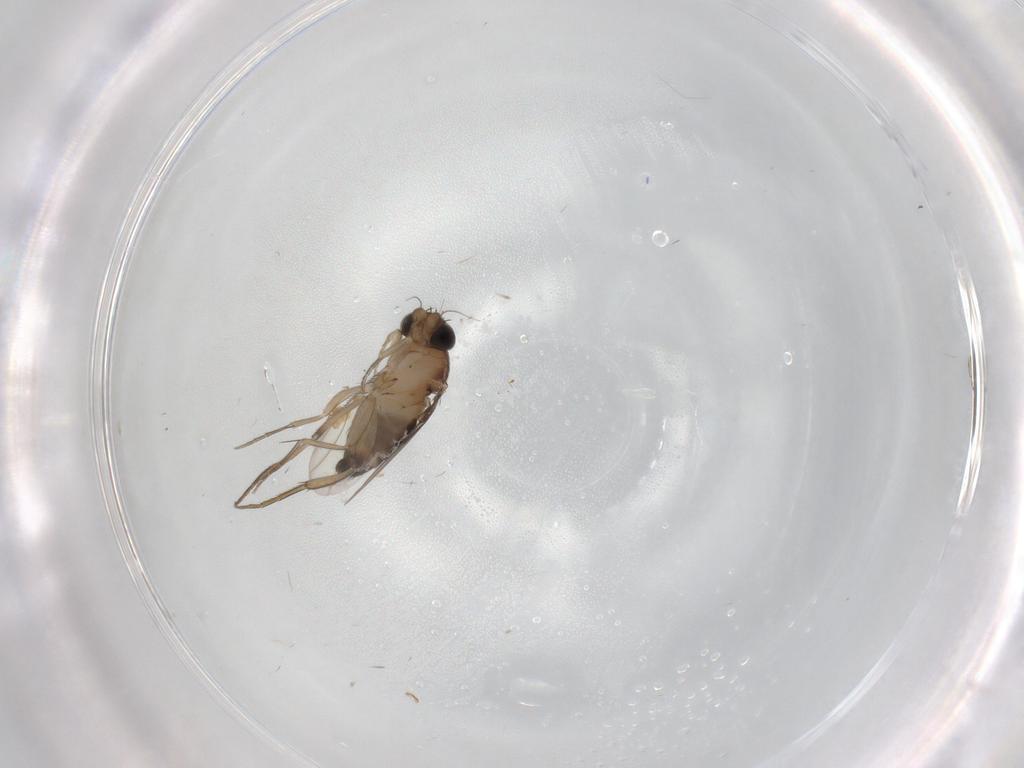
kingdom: Animalia
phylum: Arthropoda
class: Insecta
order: Diptera
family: Phoridae
